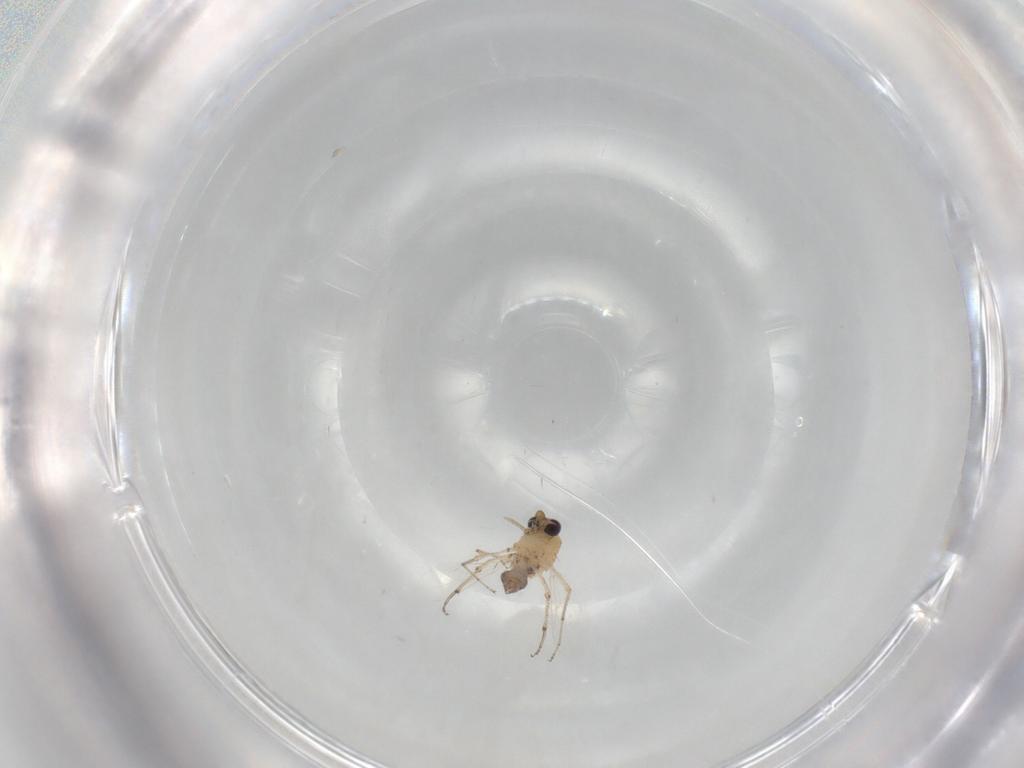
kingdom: Animalia
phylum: Arthropoda
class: Insecta
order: Diptera
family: Ceratopogonidae
